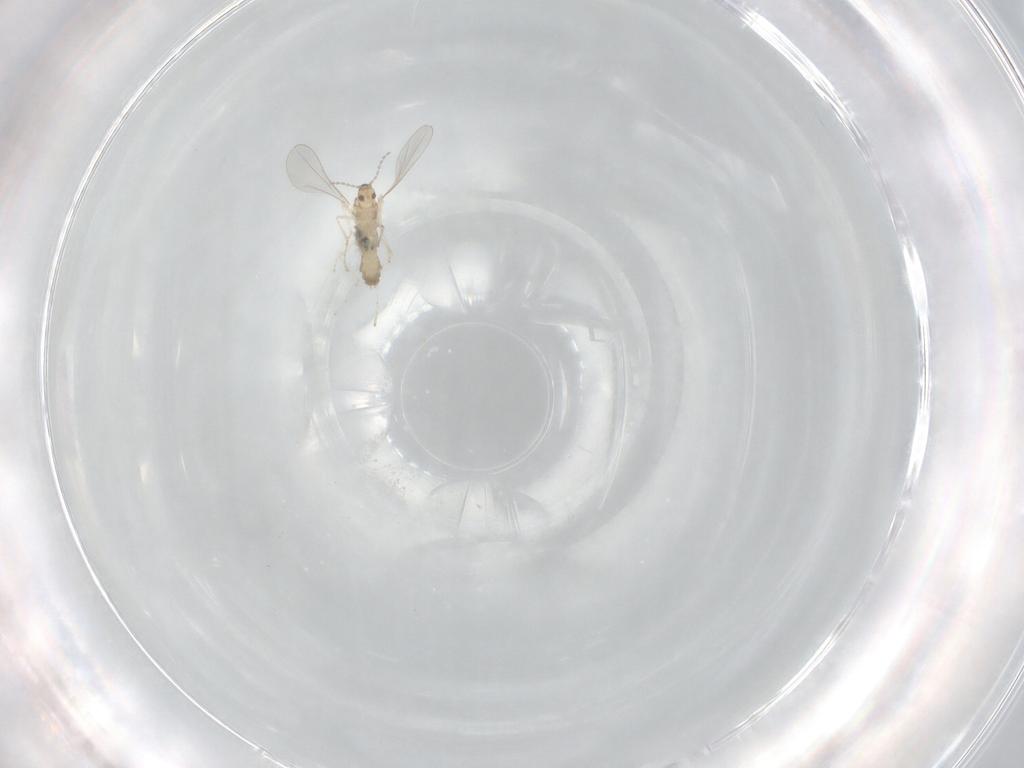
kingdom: Animalia
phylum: Arthropoda
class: Insecta
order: Diptera
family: Cecidomyiidae
